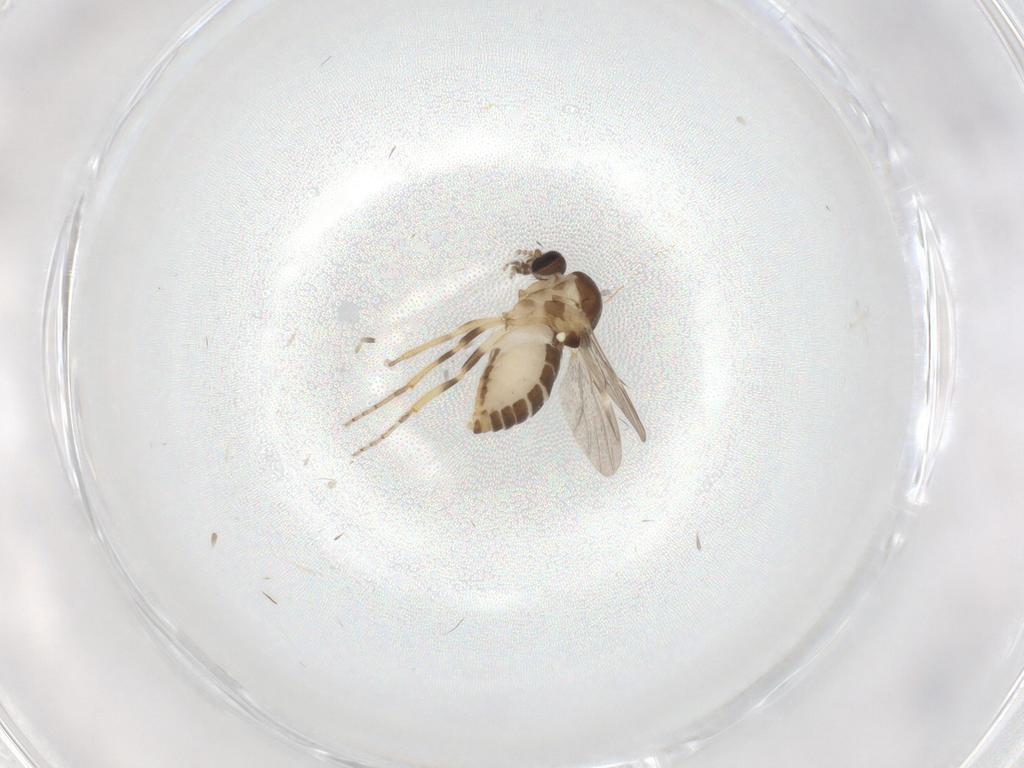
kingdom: Animalia
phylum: Arthropoda
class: Insecta
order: Diptera
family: Ceratopogonidae
